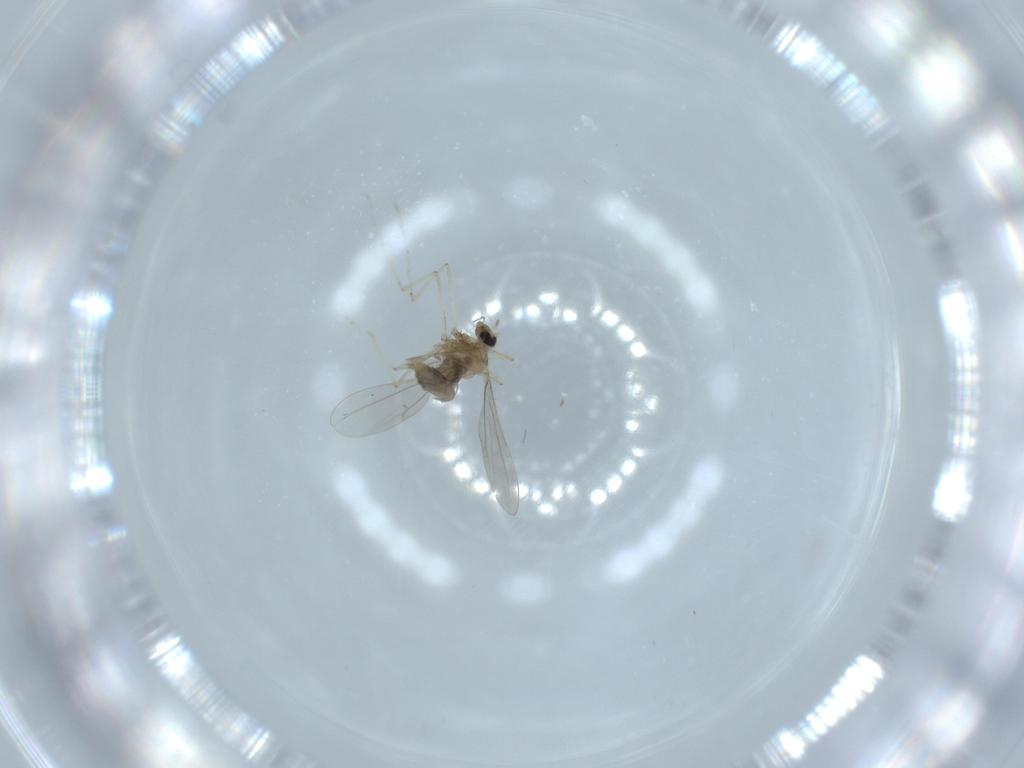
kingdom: Animalia
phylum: Arthropoda
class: Insecta
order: Diptera
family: Cecidomyiidae
